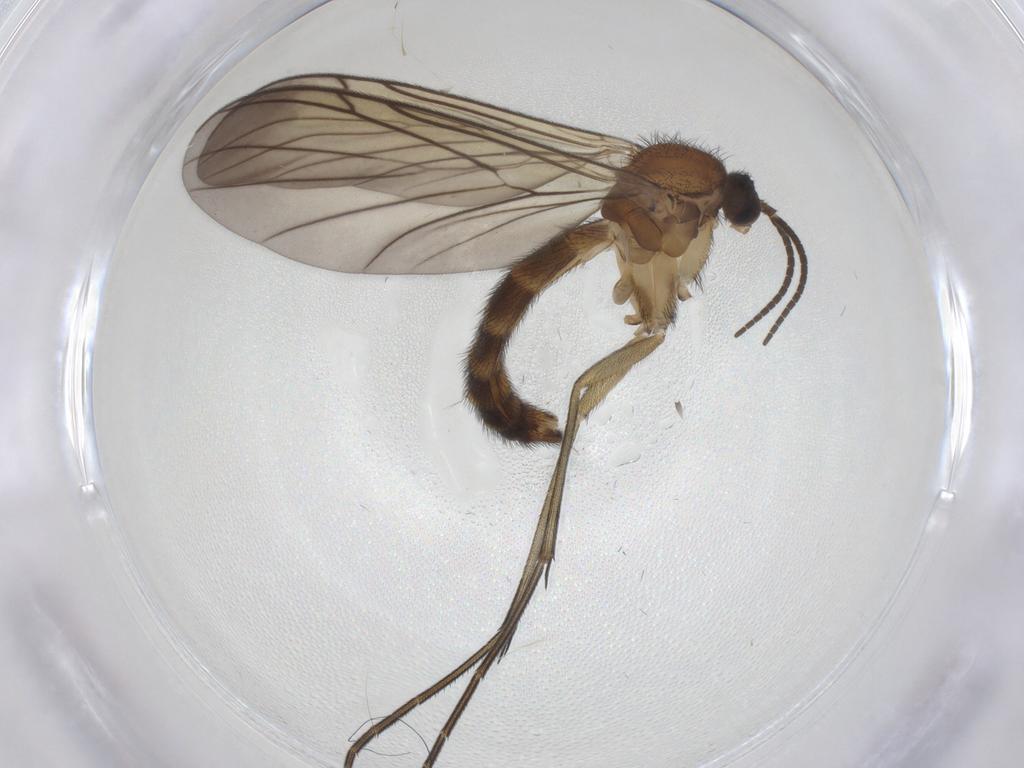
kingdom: Animalia
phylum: Arthropoda
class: Insecta
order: Diptera
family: Keroplatidae
